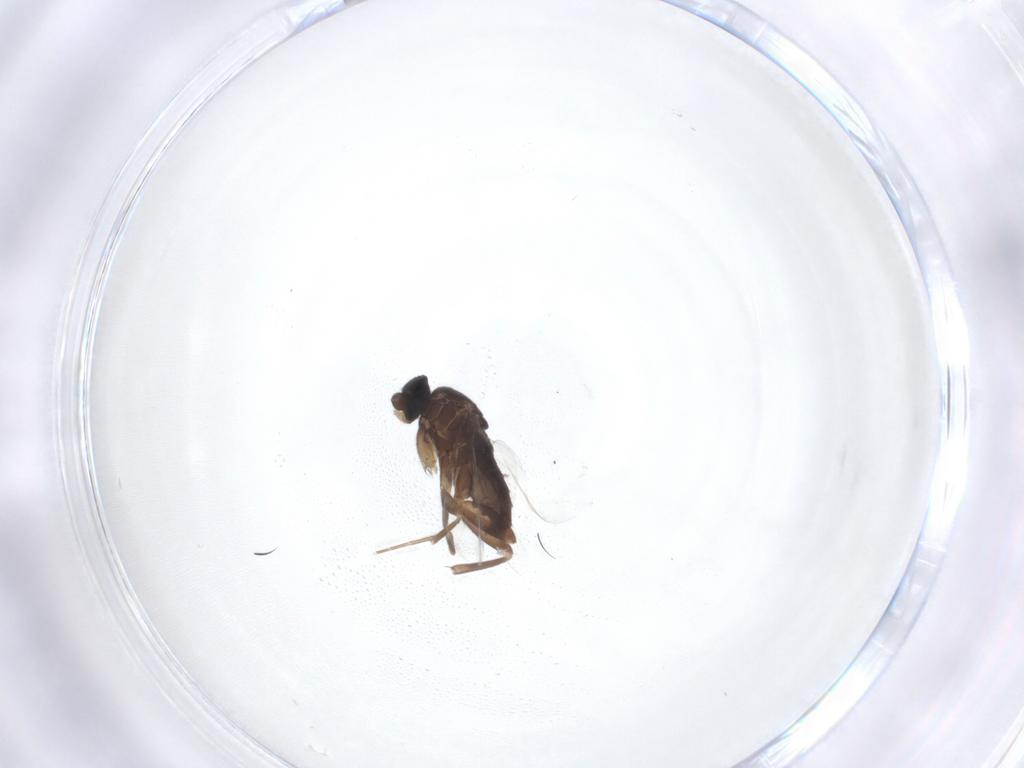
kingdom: Animalia
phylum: Arthropoda
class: Insecta
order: Diptera
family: Phoridae
